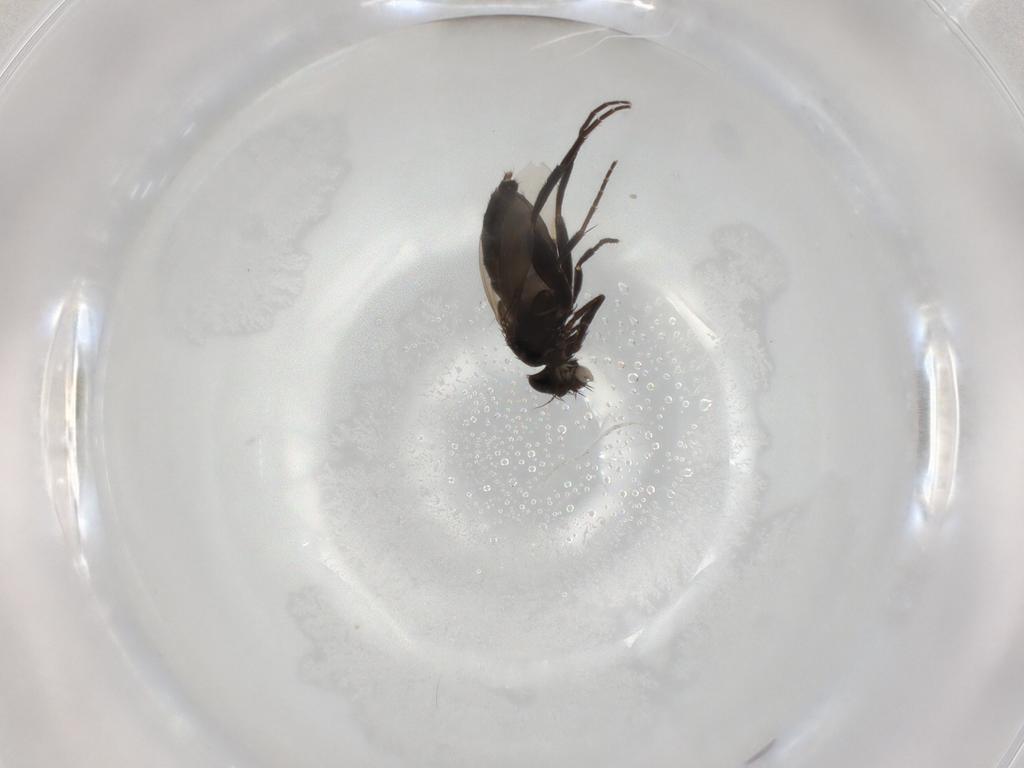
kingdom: Animalia
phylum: Arthropoda
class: Insecta
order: Diptera
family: Phoridae
